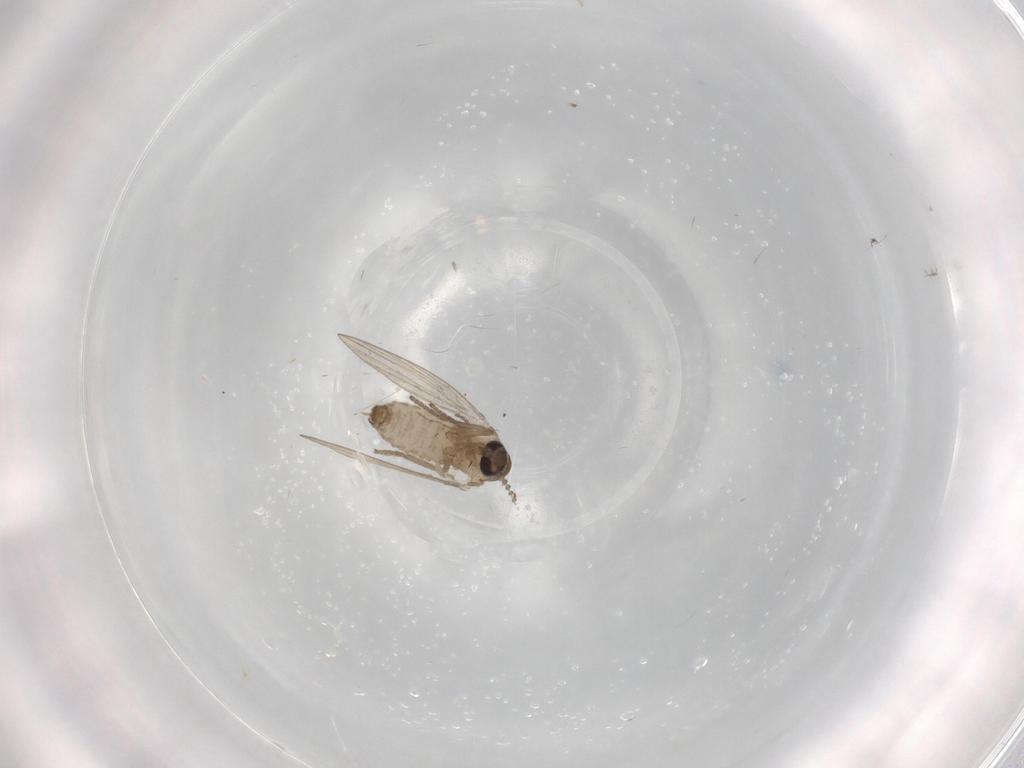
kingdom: Animalia
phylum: Arthropoda
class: Insecta
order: Diptera
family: Psychodidae
